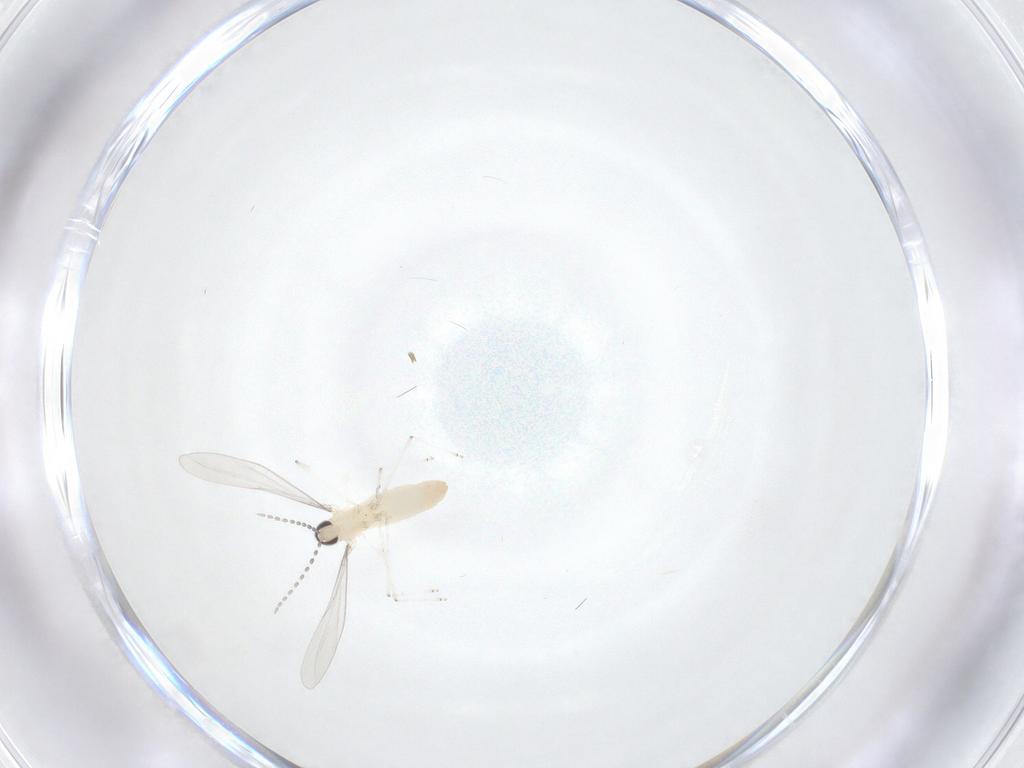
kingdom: Animalia
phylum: Arthropoda
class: Insecta
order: Diptera
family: Cecidomyiidae
